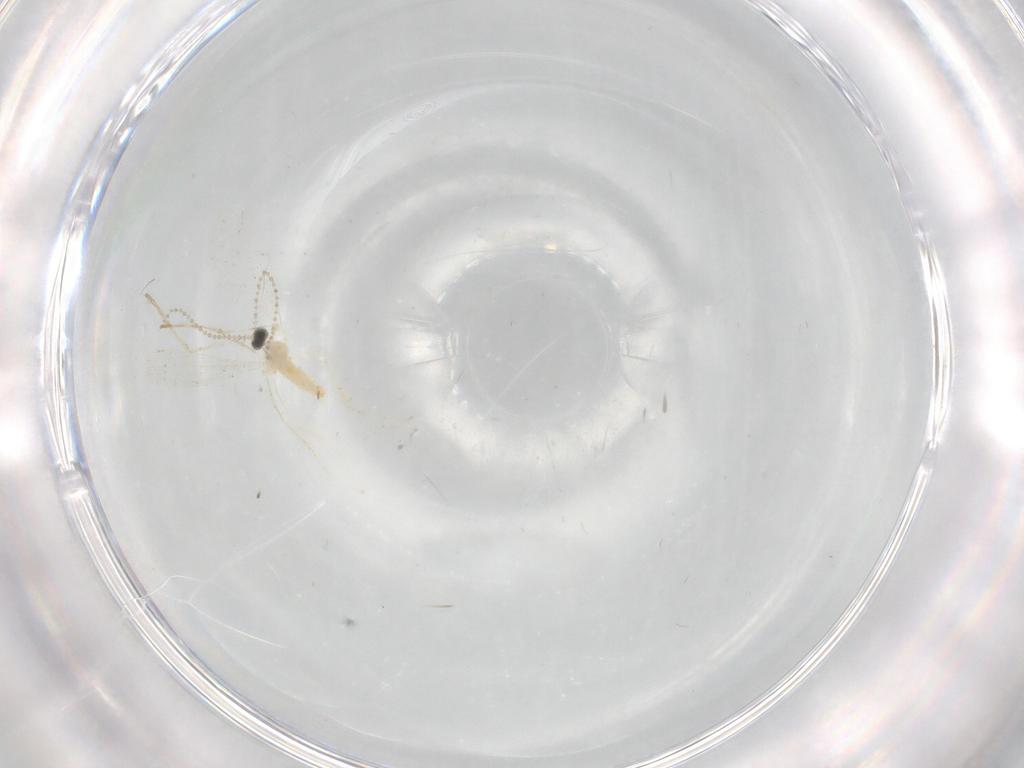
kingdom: Animalia
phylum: Arthropoda
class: Insecta
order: Diptera
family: Cecidomyiidae
